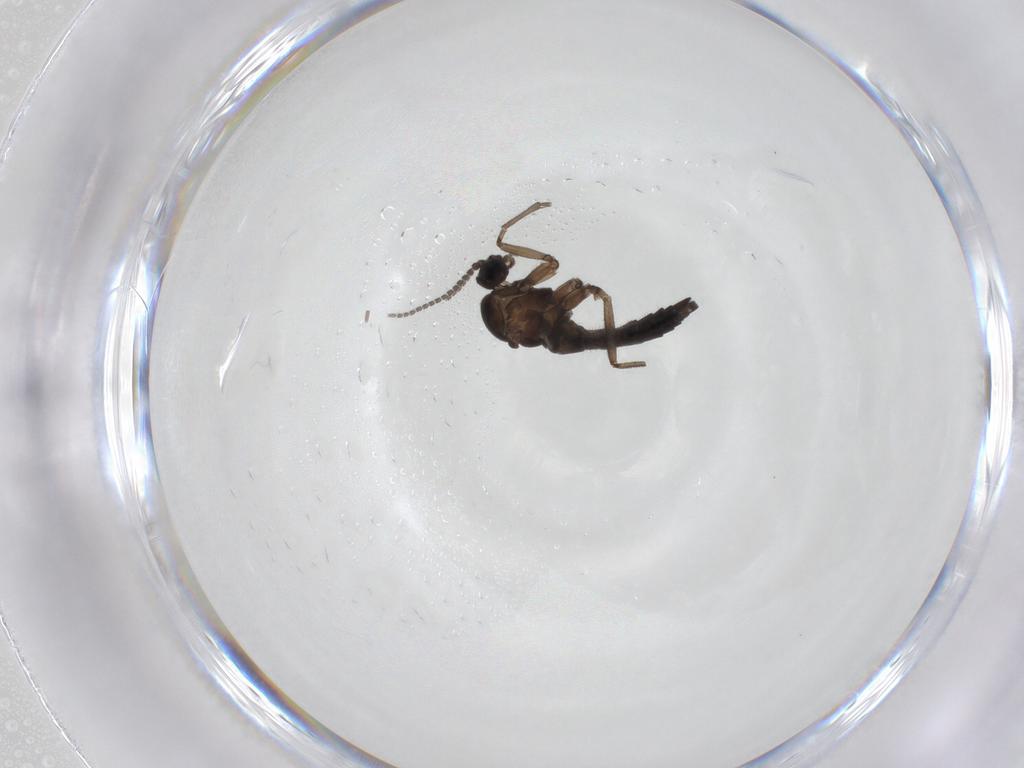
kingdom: Animalia
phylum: Arthropoda
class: Insecta
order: Diptera
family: Sciaridae
